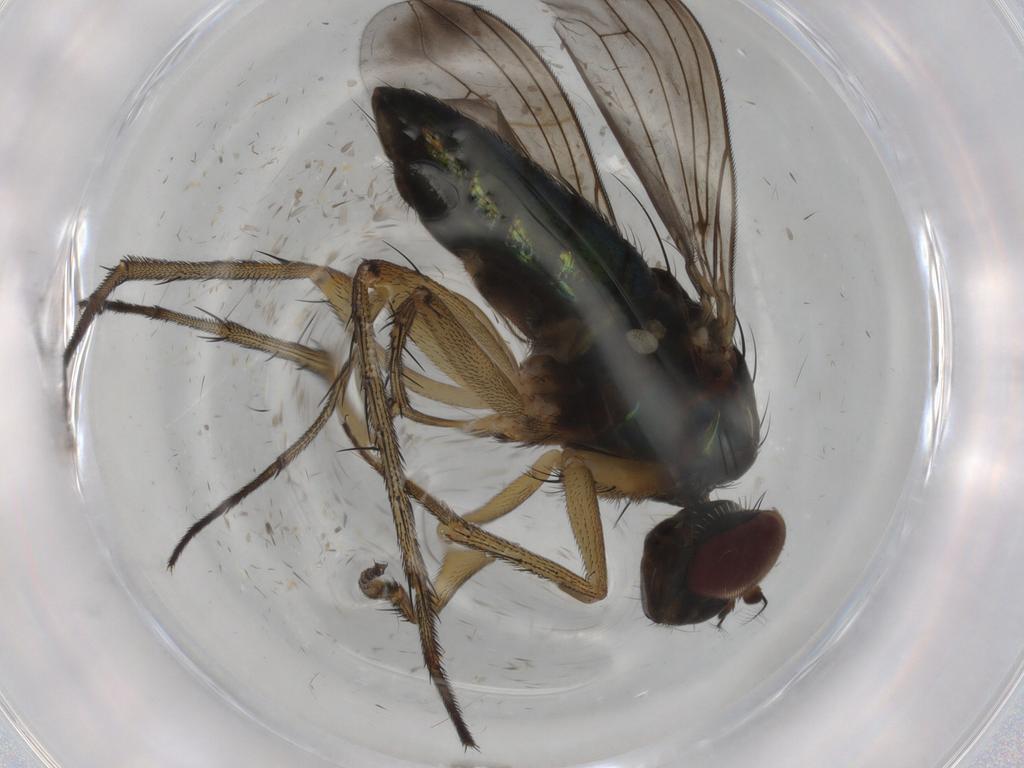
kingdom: Animalia
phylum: Arthropoda
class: Insecta
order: Diptera
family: Dolichopodidae
